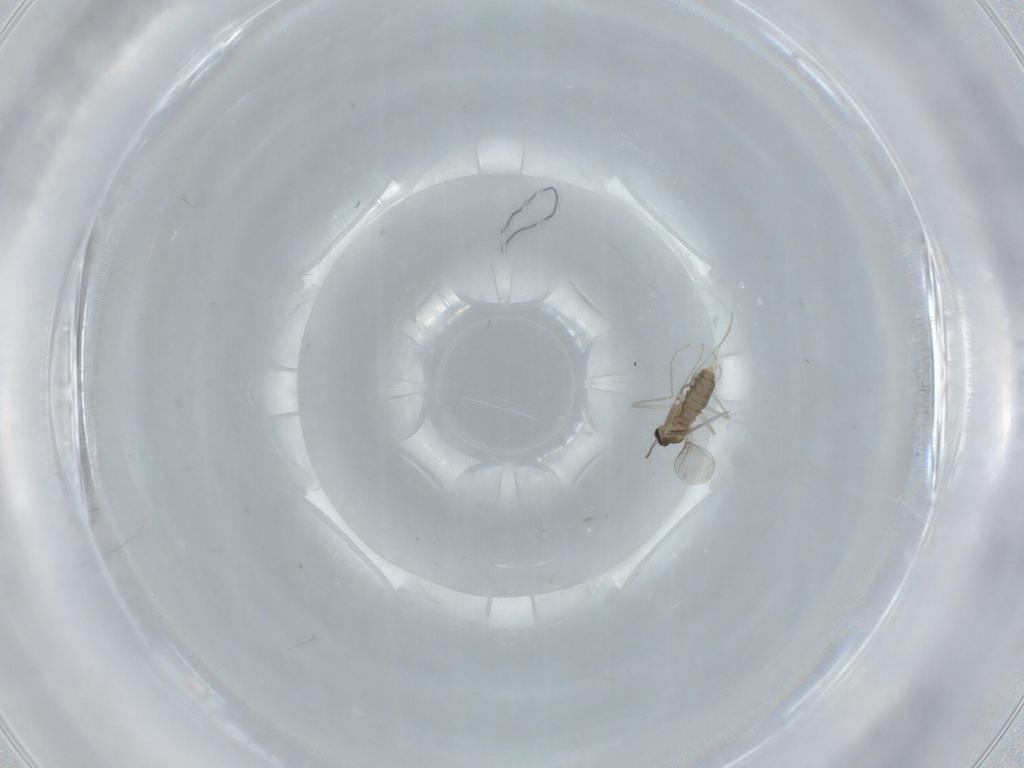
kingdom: Animalia
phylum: Arthropoda
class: Insecta
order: Diptera
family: Cecidomyiidae
